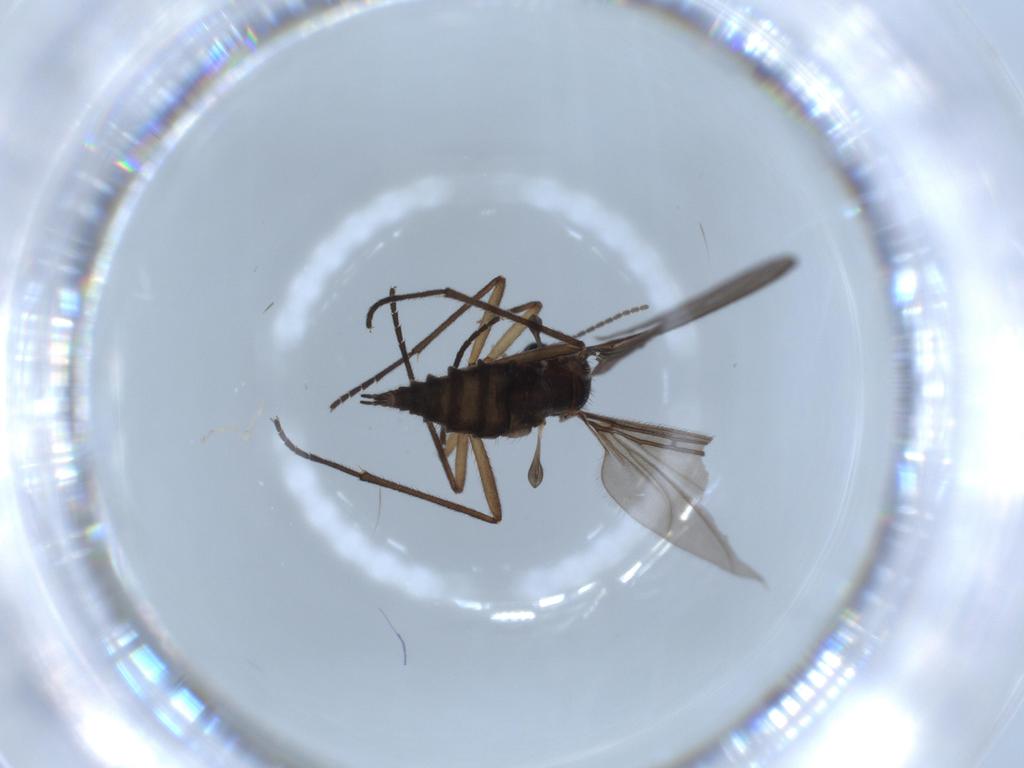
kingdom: Animalia
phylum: Arthropoda
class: Insecta
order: Diptera
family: Sciaridae
